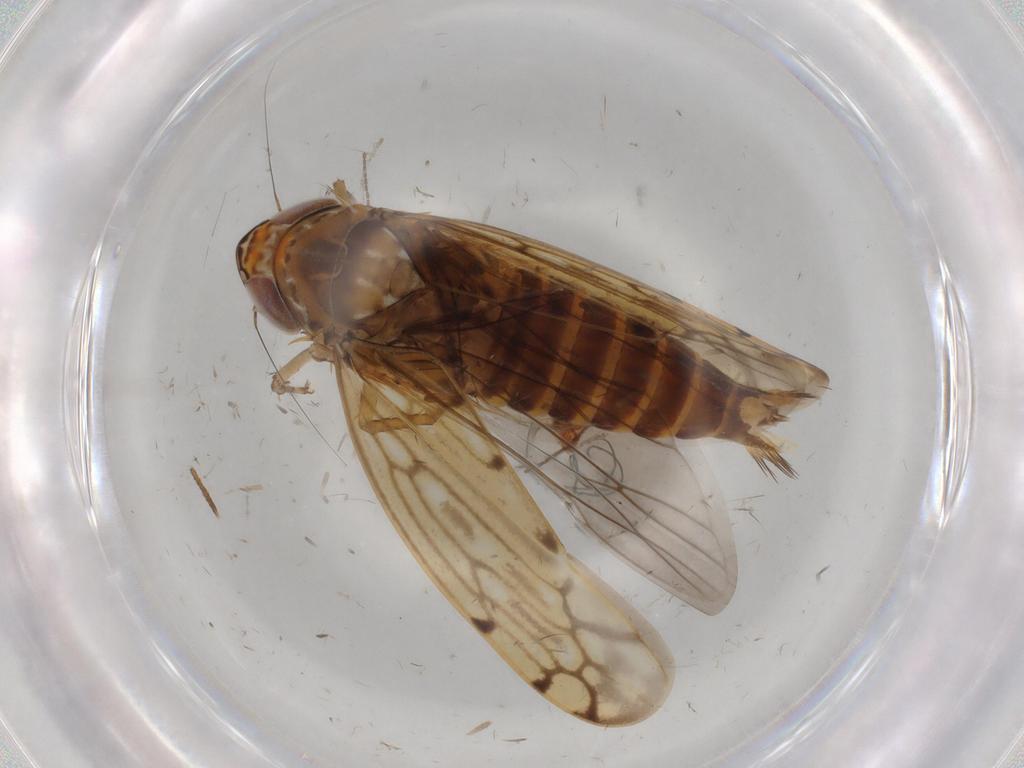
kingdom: Animalia
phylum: Arthropoda
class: Insecta
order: Hemiptera
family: Cicadellidae
